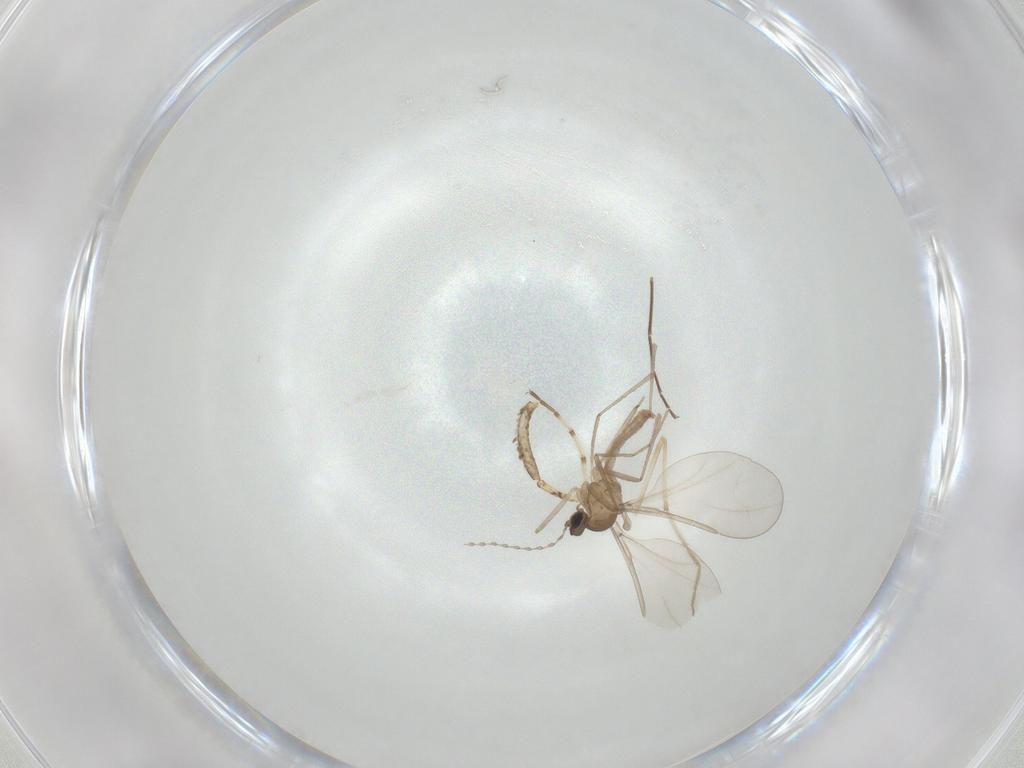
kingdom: Animalia
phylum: Arthropoda
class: Insecta
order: Diptera
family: Cecidomyiidae
